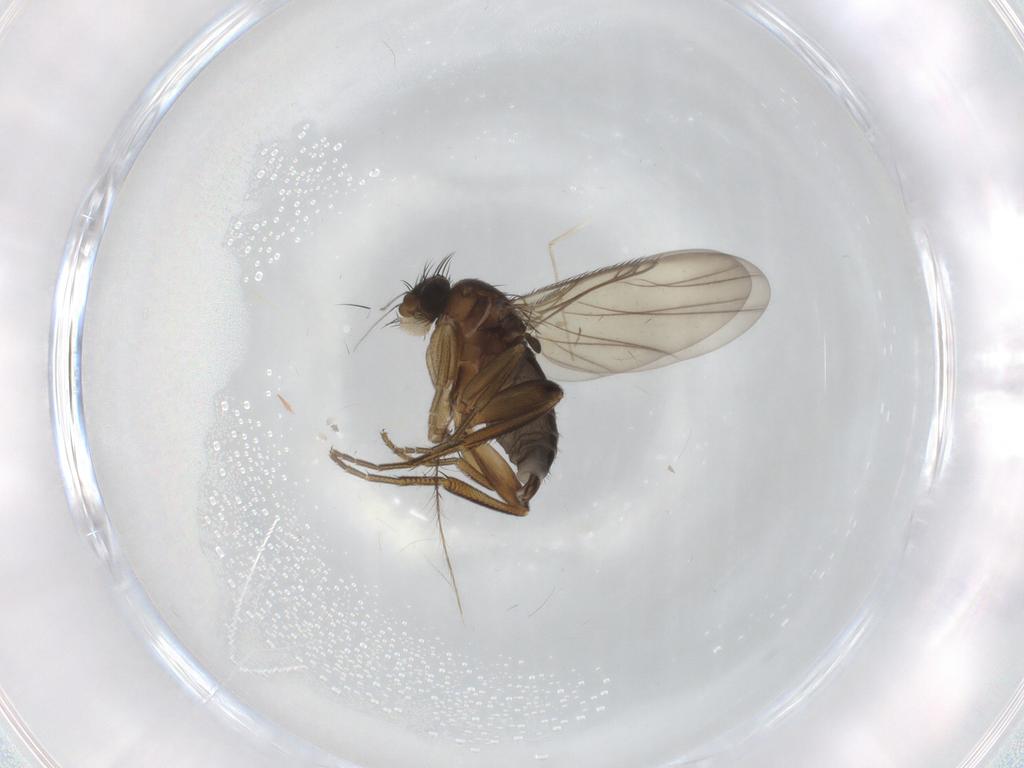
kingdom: Animalia
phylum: Arthropoda
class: Insecta
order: Diptera
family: Phoridae
